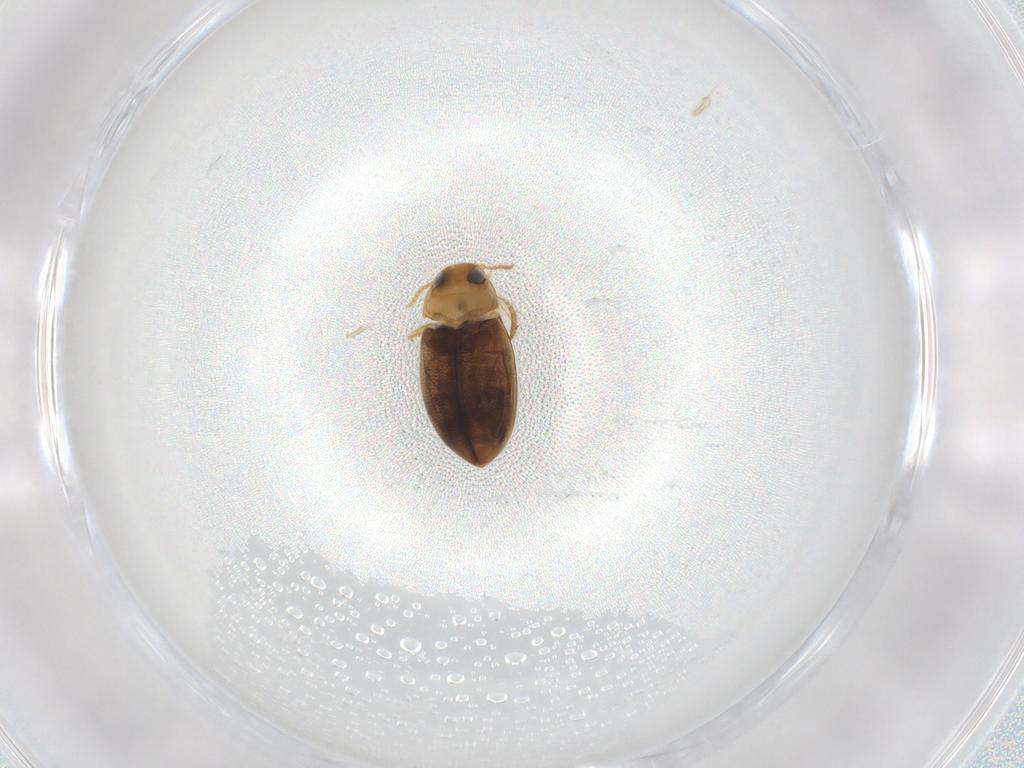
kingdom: Animalia
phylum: Arthropoda
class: Insecta
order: Coleoptera
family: Dytiscidae
